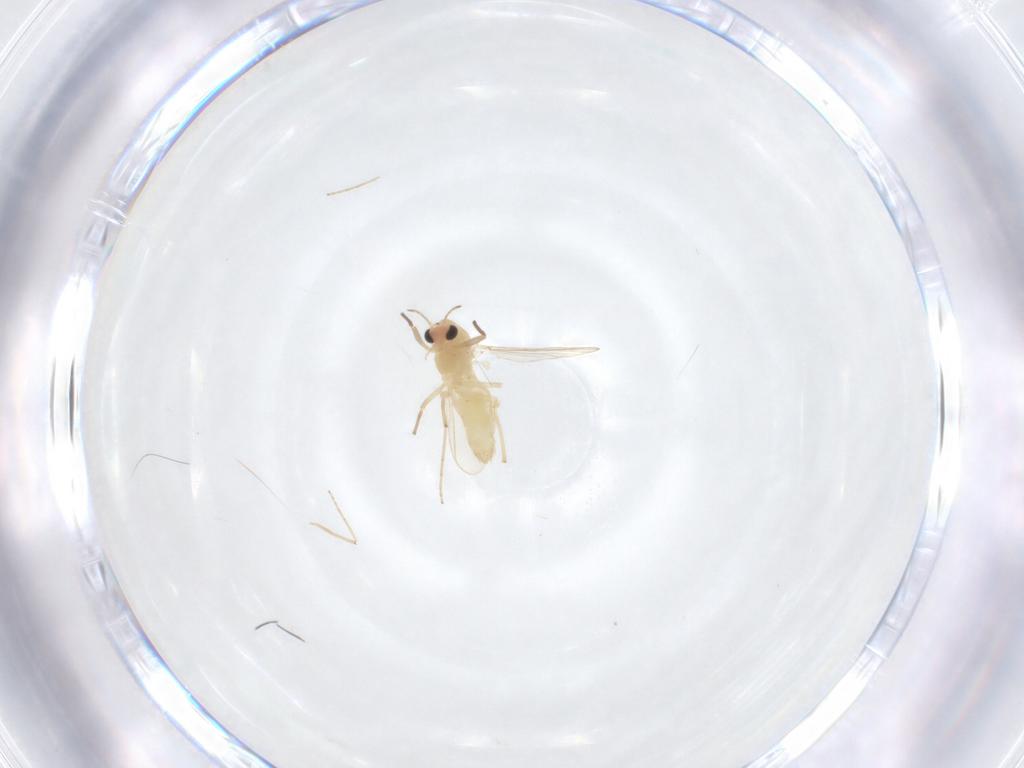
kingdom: Animalia
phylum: Arthropoda
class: Insecta
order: Diptera
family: Chironomidae
